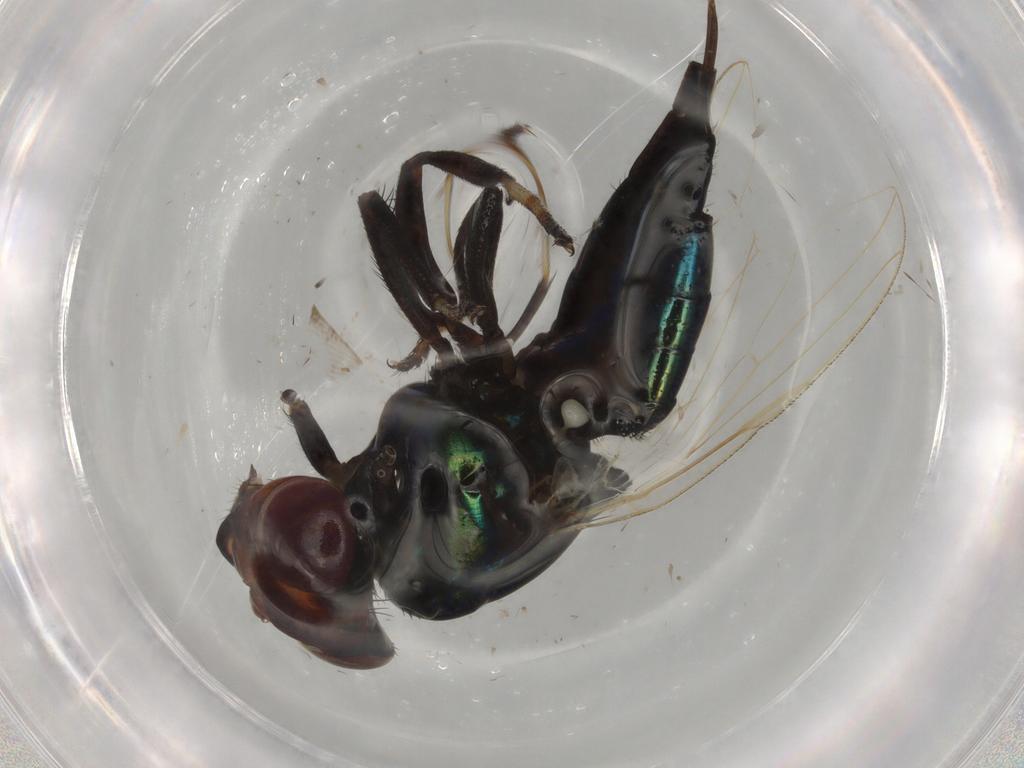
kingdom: Animalia
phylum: Arthropoda
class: Insecta
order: Diptera
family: Ulidiidae
